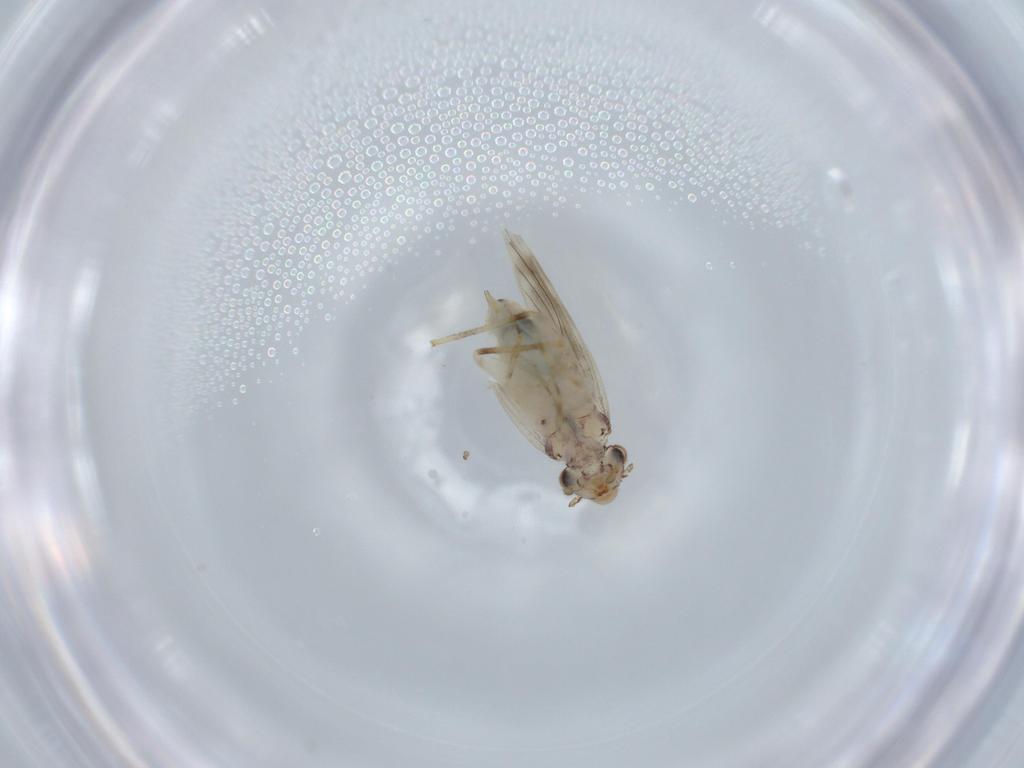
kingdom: Animalia
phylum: Arthropoda
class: Insecta
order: Psocodea
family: Lepidopsocidae
